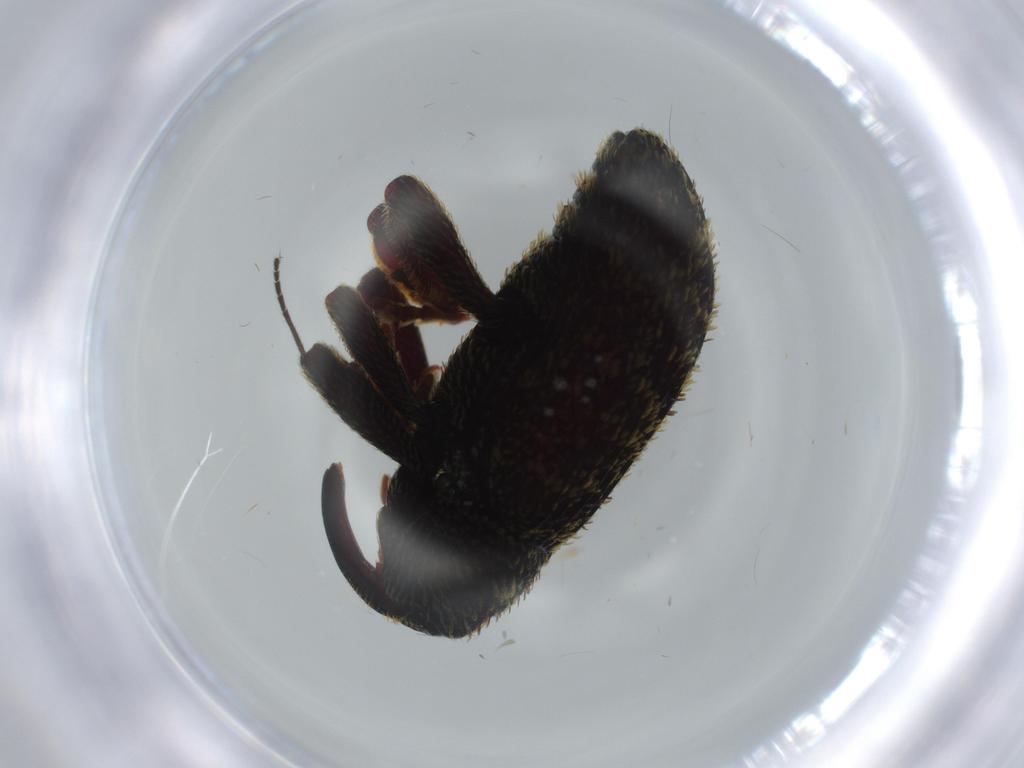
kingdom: Animalia
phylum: Arthropoda
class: Insecta
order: Coleoptera
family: Curculionidae
